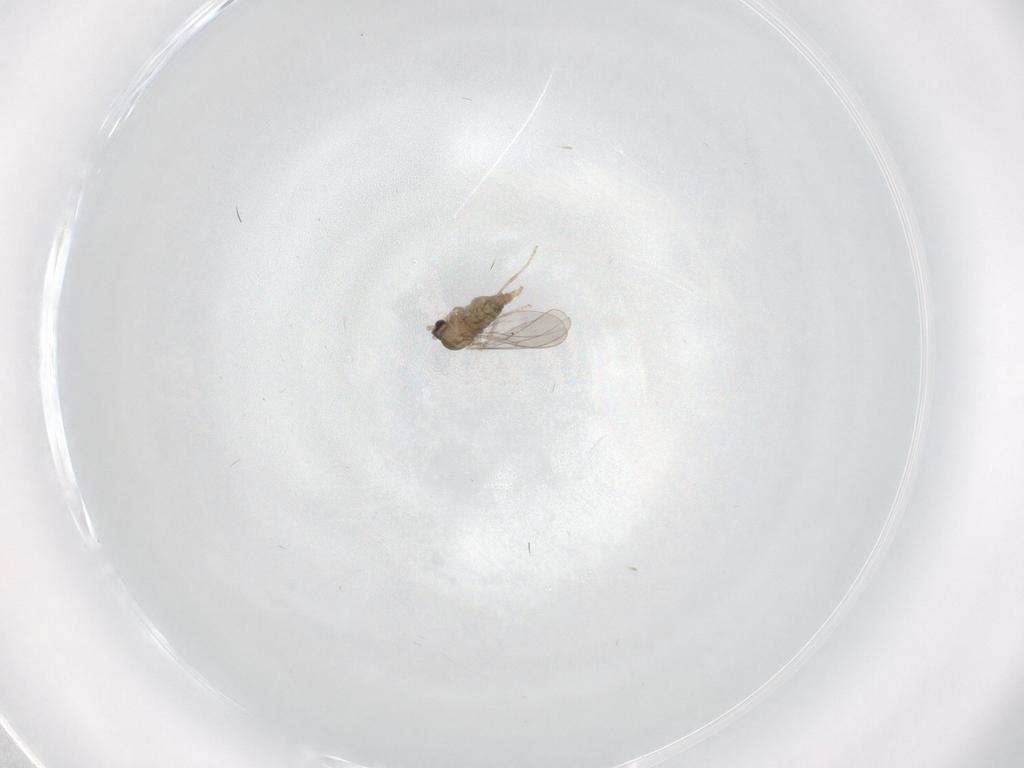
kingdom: Animalia
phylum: Arthropoda
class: Insecta
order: Diptera
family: Cecidomyiidae
